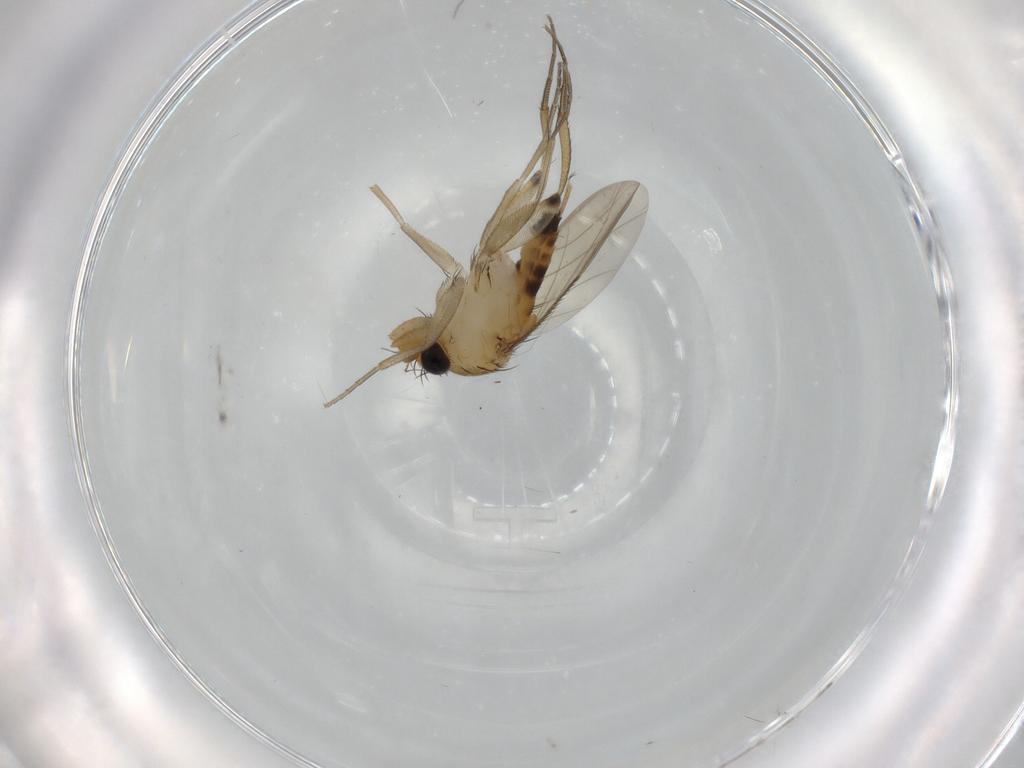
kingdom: Animalia
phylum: Arthropoda
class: Insecta
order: Diptera
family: Phoridae
